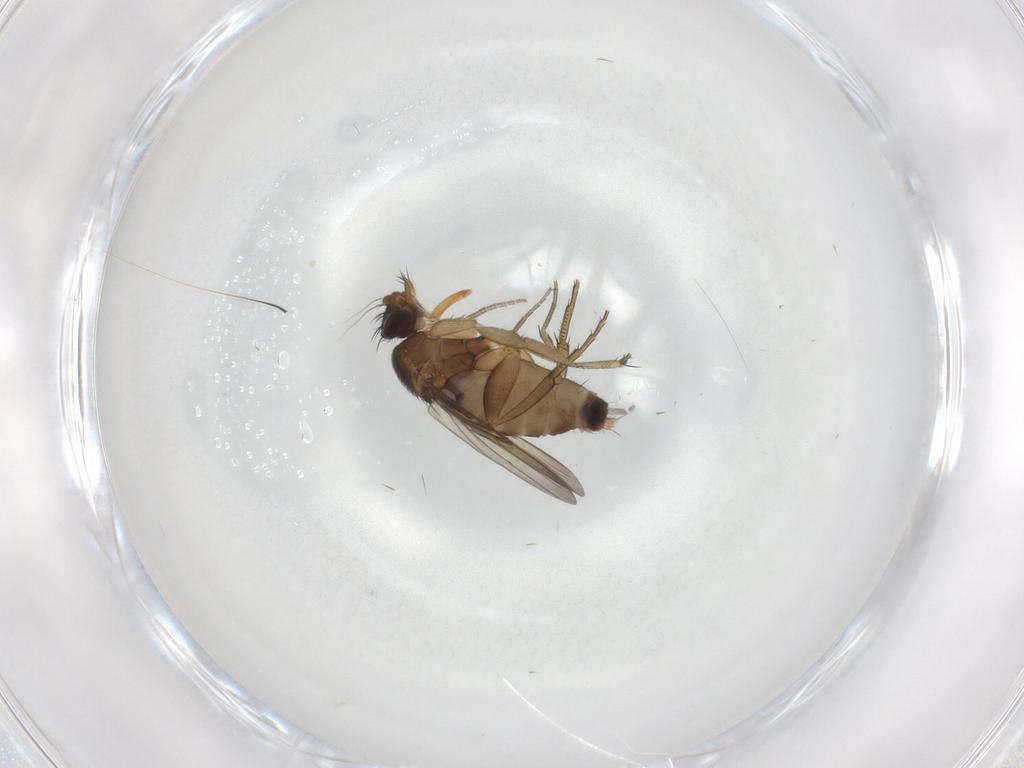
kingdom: Animalia
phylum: Arthropoda
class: Insecta
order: Diptera
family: Phoridae
